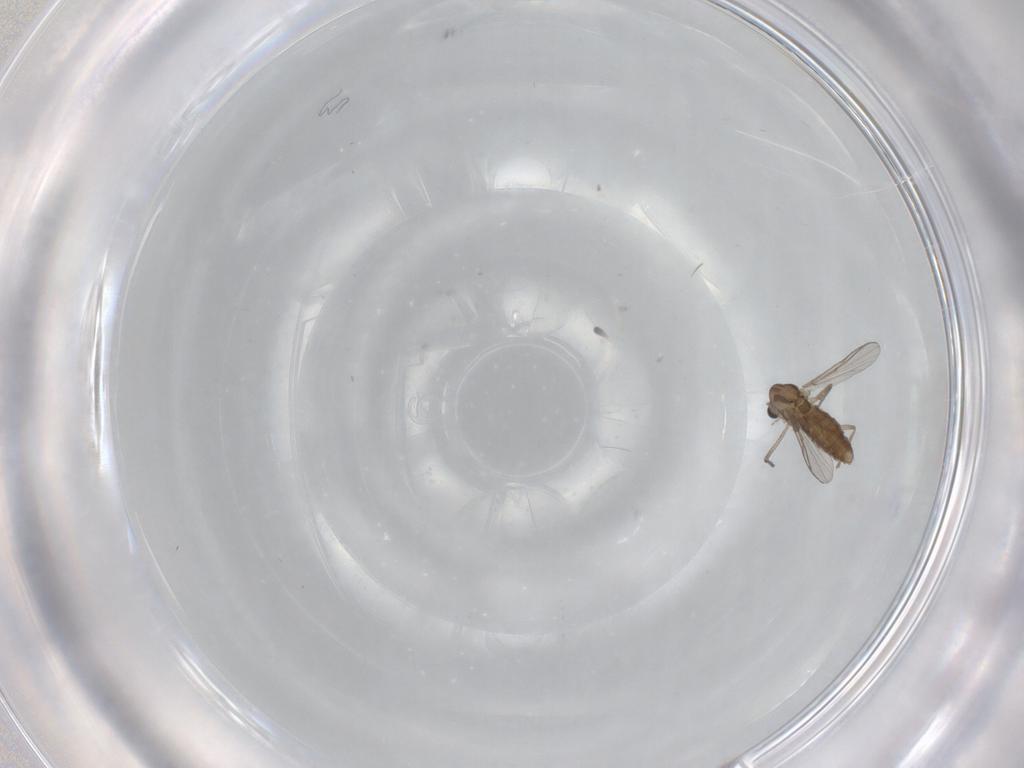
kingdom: Animalia
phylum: Arthropoda
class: Insecta
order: Diptera
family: Chironomidae
